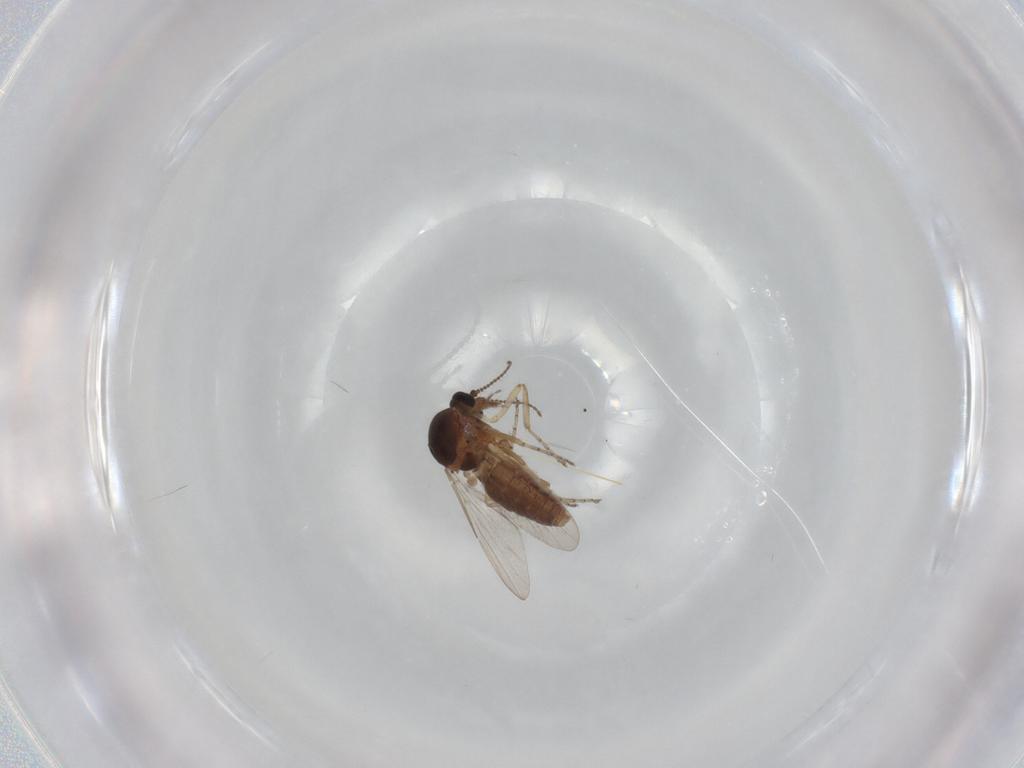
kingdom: Animalia
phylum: Arthropoda
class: Insecta
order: Diptera
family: Ceratopogonidae
